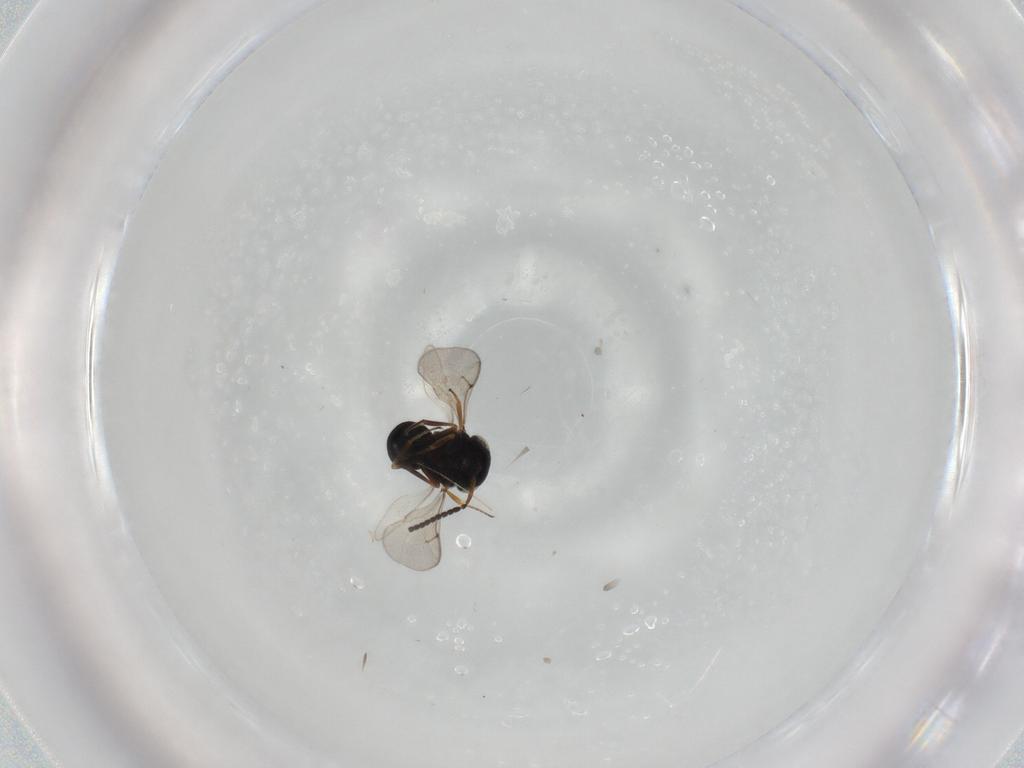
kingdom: Animalia
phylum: Arthropoda
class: Insecta
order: Hymenoptera
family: Scelionidae
